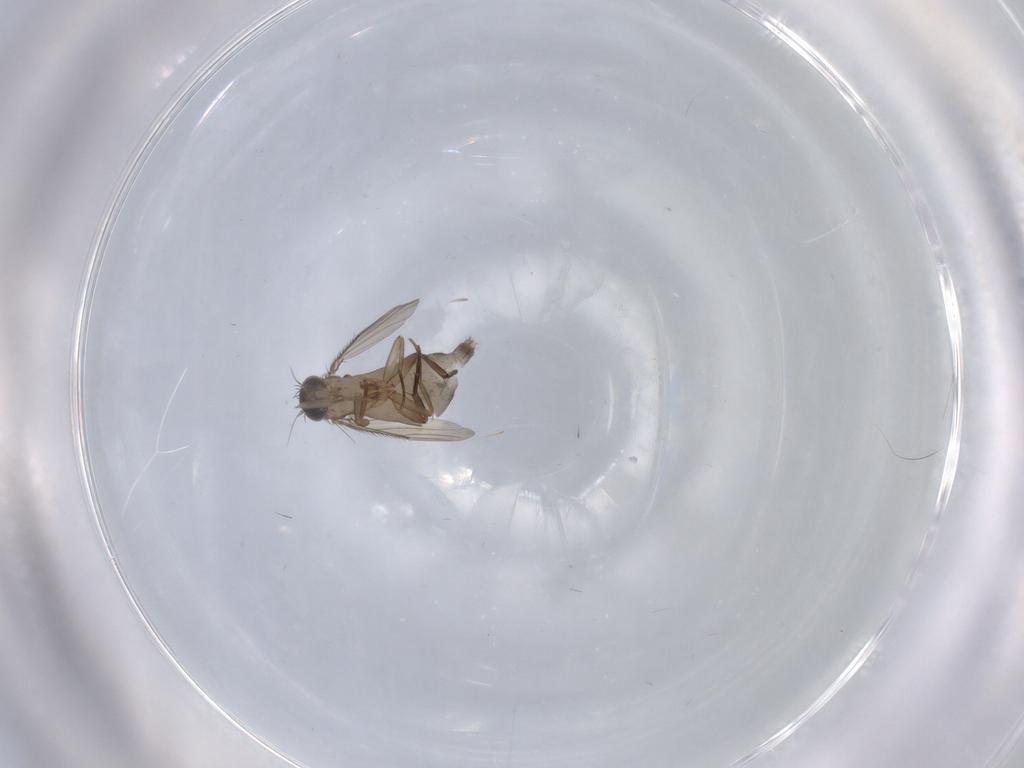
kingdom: Animalia
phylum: Arthropoda
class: Insecta
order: Diptera
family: Phoridae
